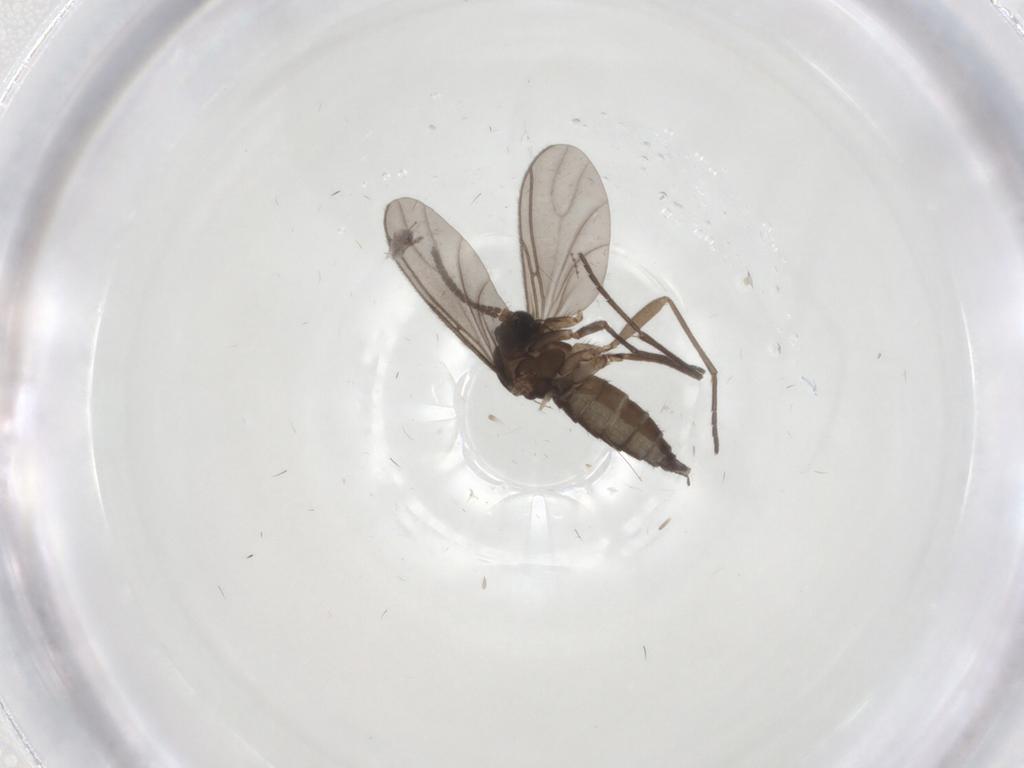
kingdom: Animalia
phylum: Arthropoda
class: Insecta
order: Diptera
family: Sciaridae
